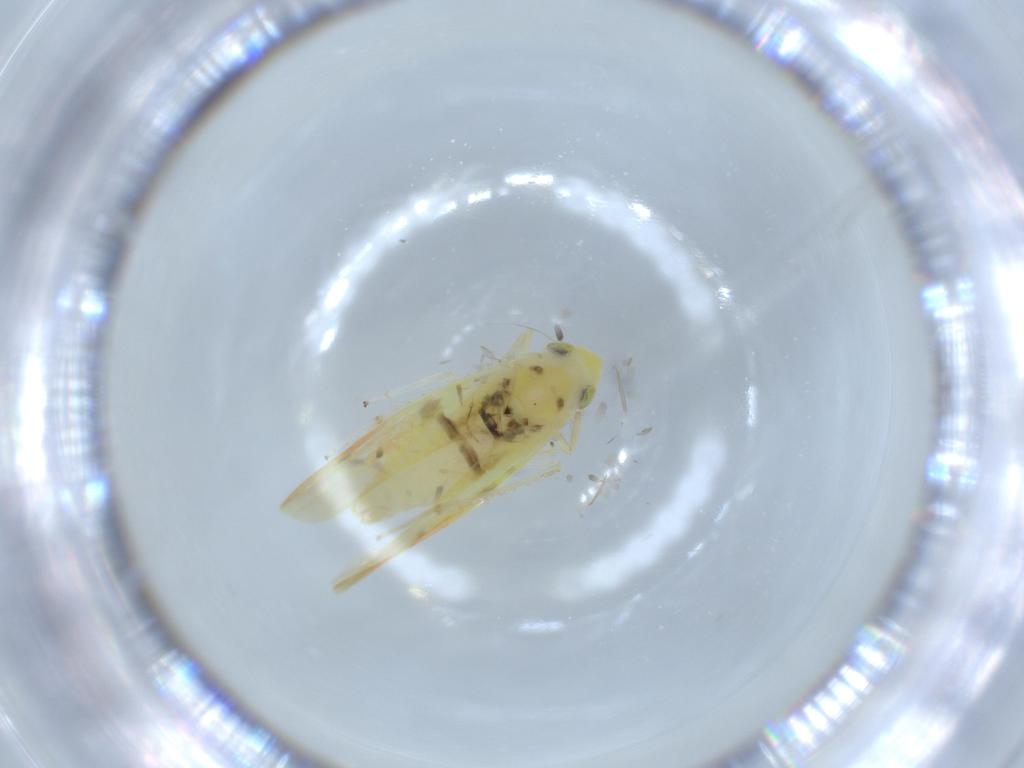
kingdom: Animalia
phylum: Arthropoda
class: Insecta
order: Hemiptera
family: Cicadellidae
